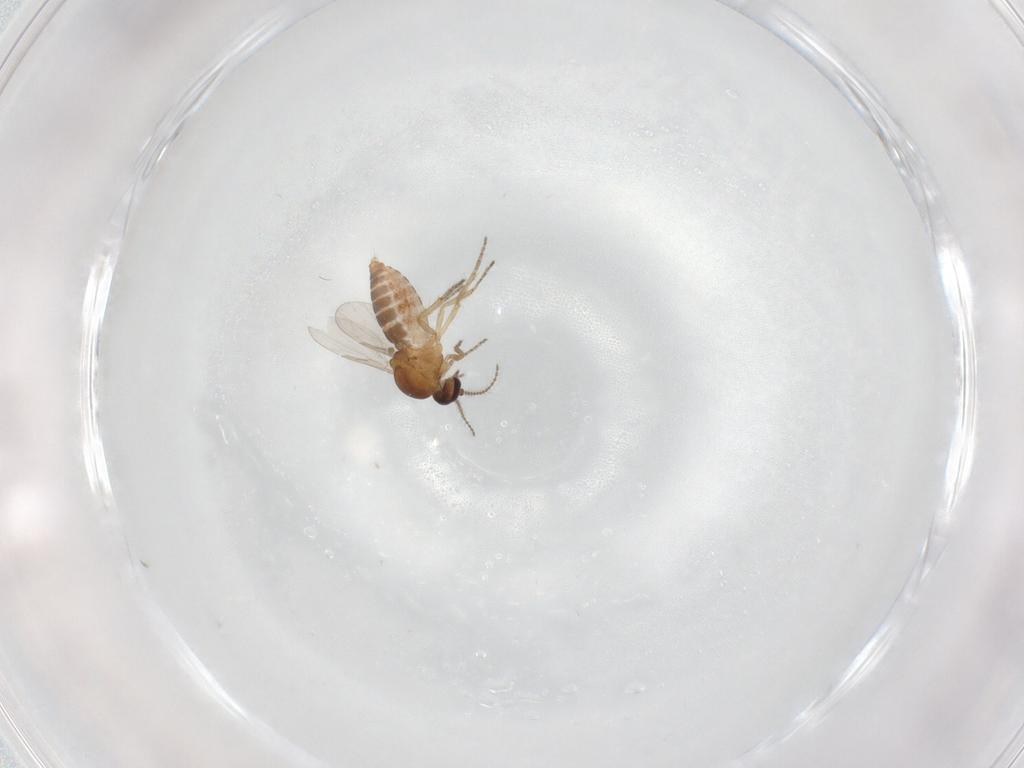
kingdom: Animalia
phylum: Arthropoda
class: Insecta
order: Diptera
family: Ceratopogonidae
